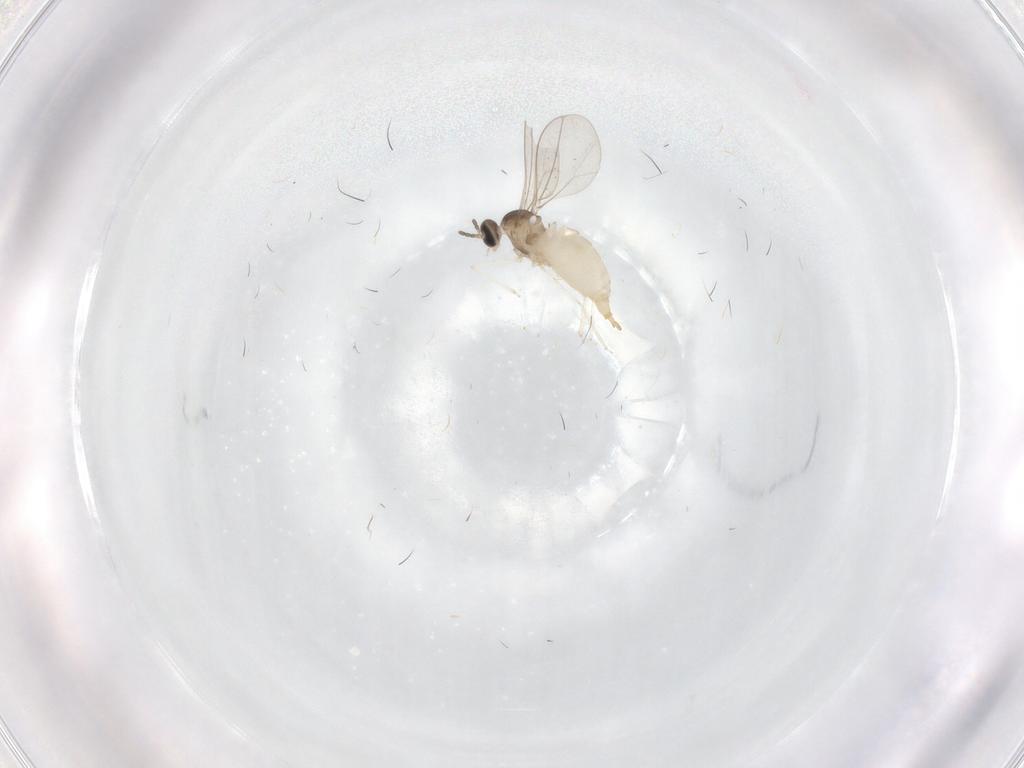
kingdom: Animalia
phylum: Arthropoda
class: Insecta
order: Diptera
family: Cecidomyiidae
